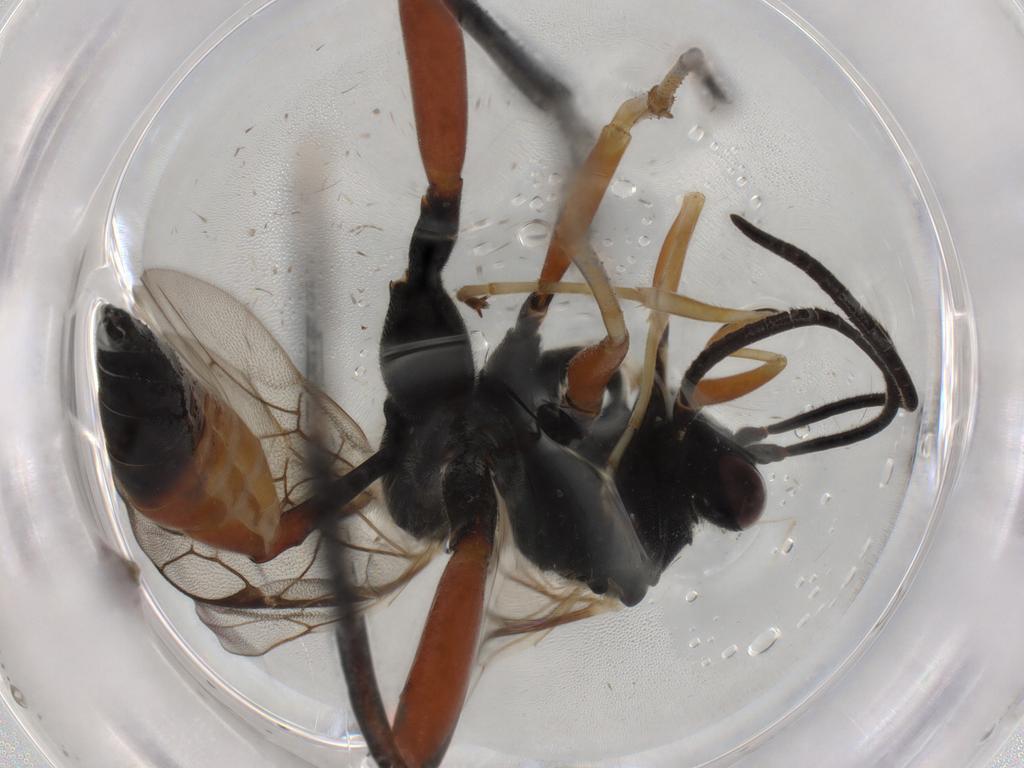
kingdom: Animalia
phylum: Arthropoda
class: Insecta
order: Hymenoptera
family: Ichneumonidae
